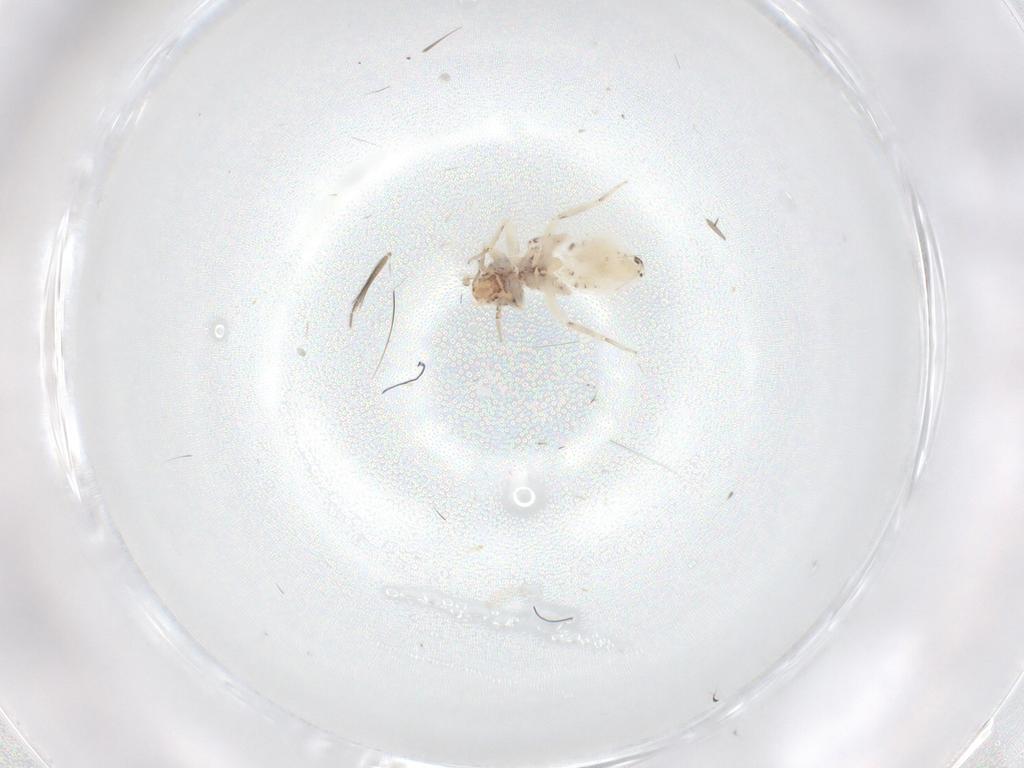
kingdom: Animalia
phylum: Arthropoda
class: Insecta
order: Psocodea
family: Lepidopsocidae
